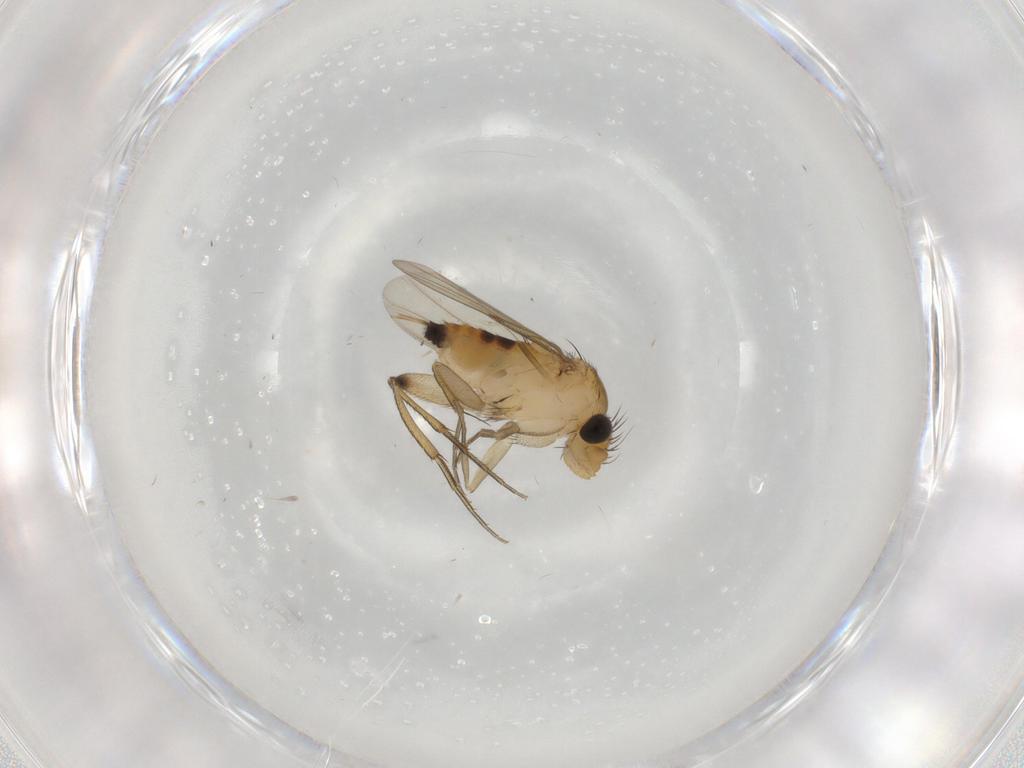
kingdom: Animalia
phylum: Arthropoda
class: Insecta
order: Diptera
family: Phoridae
